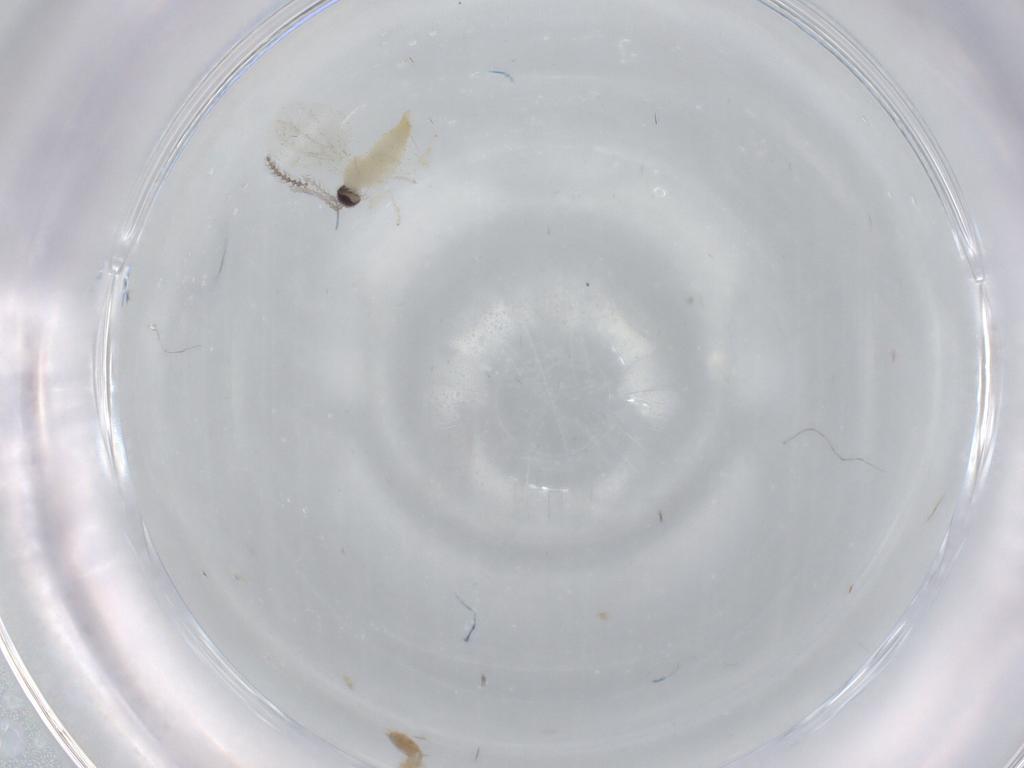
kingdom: Animalia
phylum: Arthropoda
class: Insecta
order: Diptera
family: Cecidomyiidae
